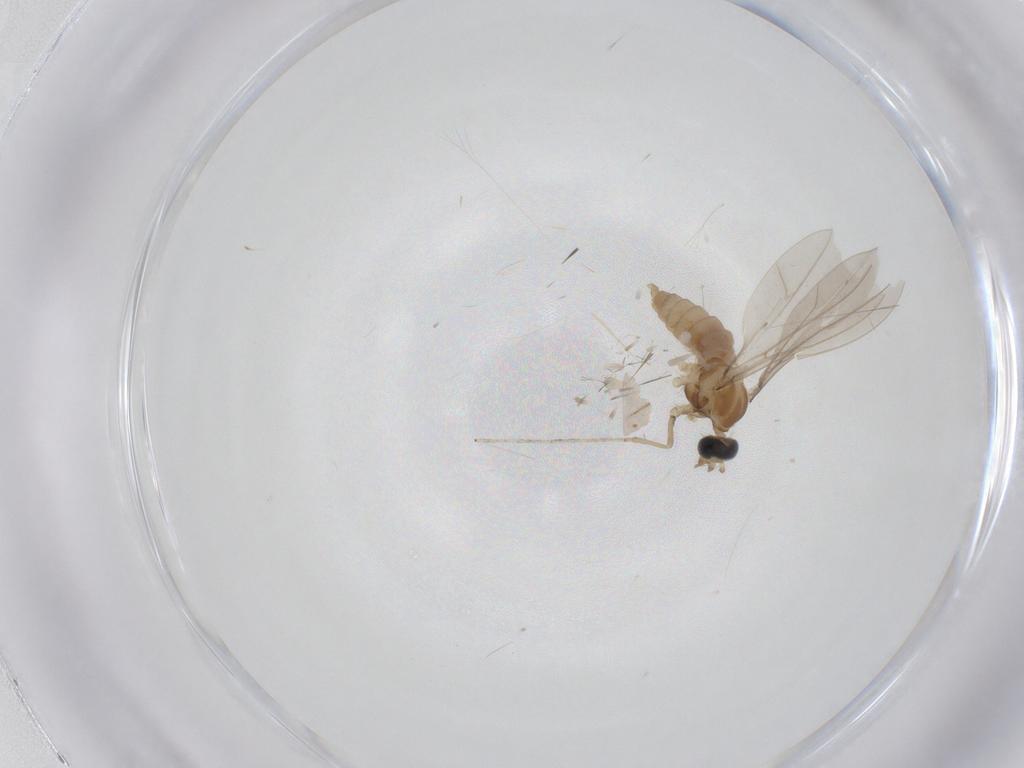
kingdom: Animalia
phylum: Arthropoda
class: Insecta
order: Diptera
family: Cecidomyiidae
